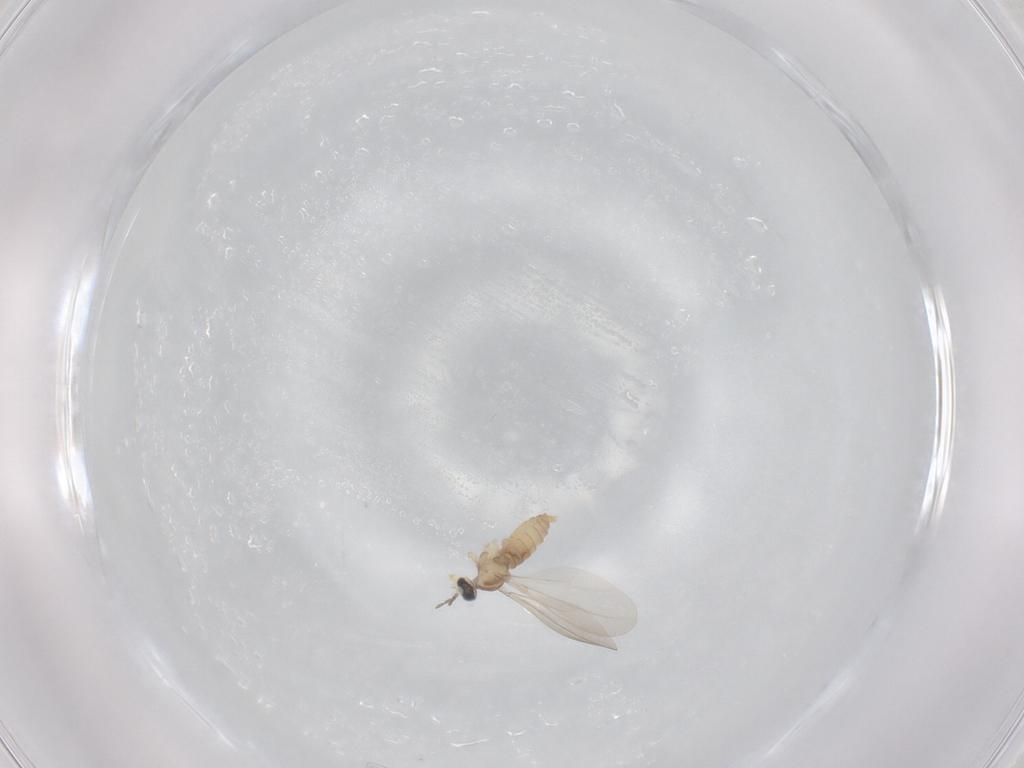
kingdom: Animalia
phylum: Arthropoda
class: Insecta
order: Diptera
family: Cecidomyiidae
